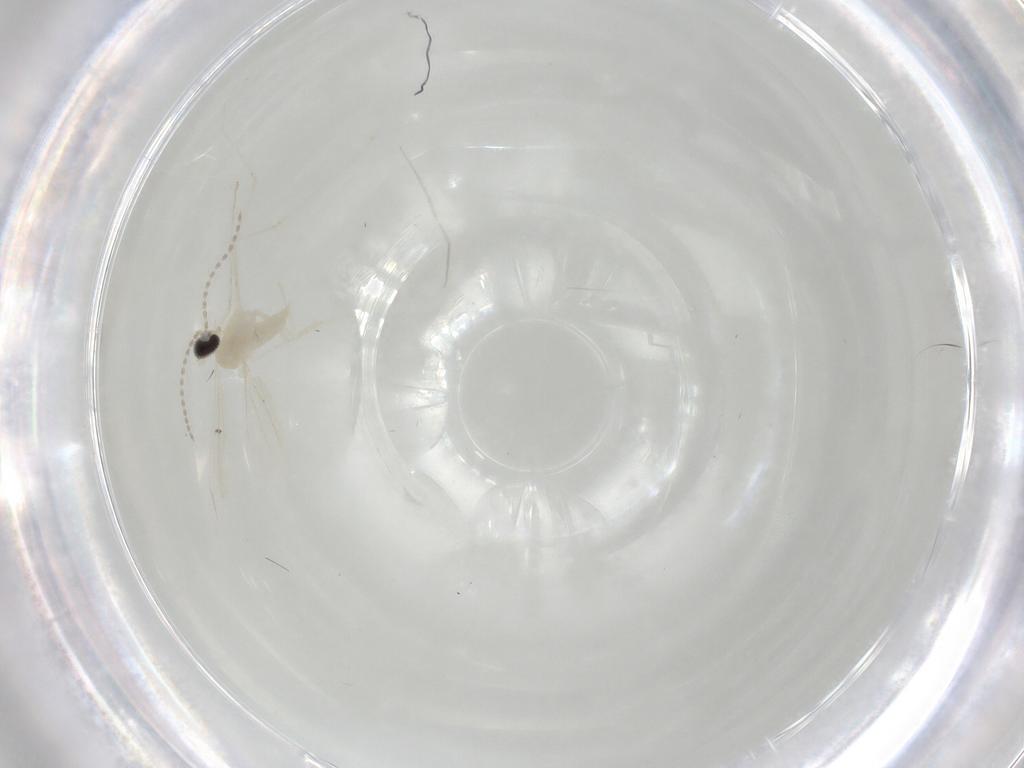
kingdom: Animalia
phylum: Arthropoda
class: Insecta
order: Diptera
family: Cecidomyiidae
